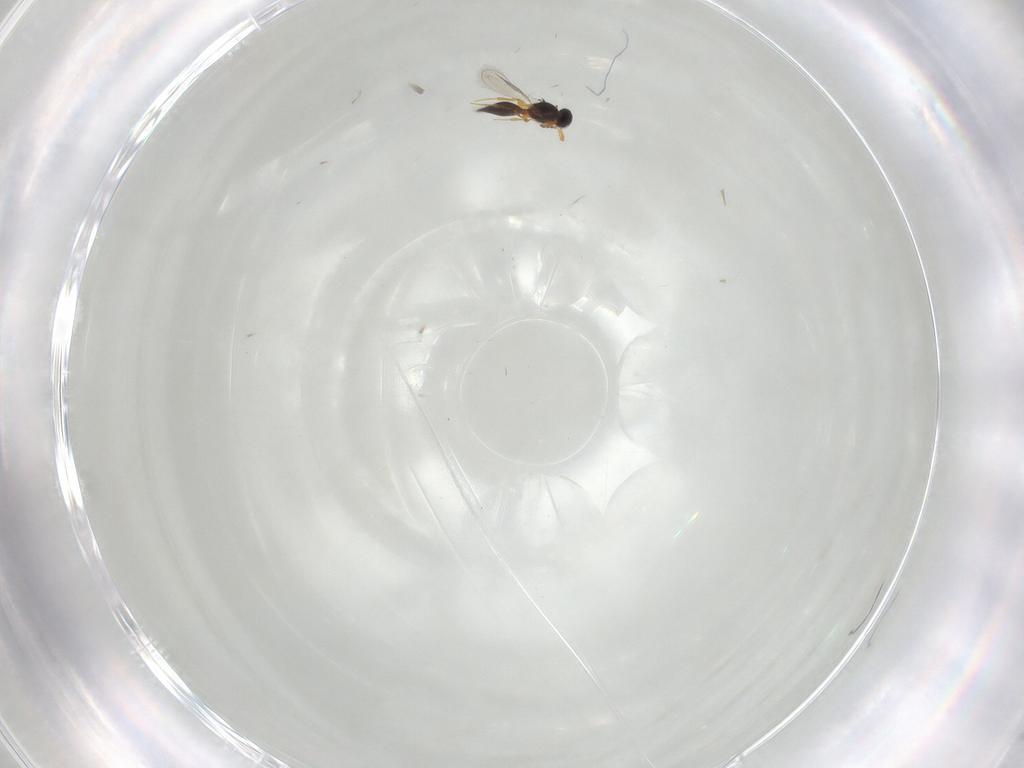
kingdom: Animalia
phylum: Arthropoda
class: Insecta
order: Hymenoptera
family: Platygastridae
